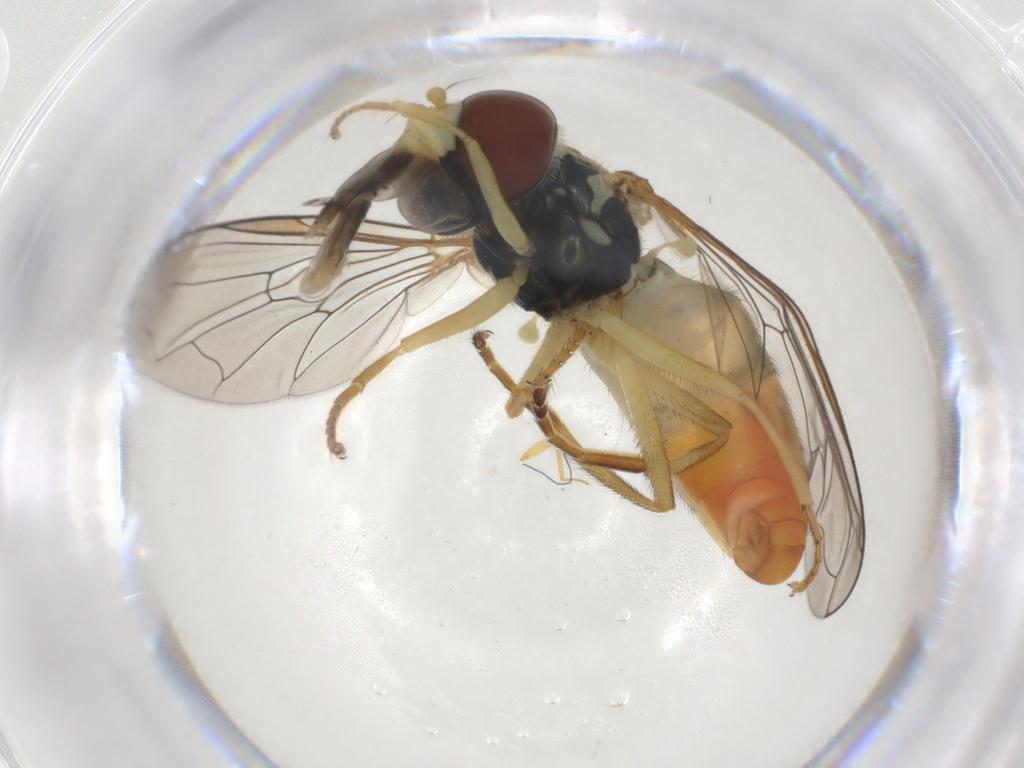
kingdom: Animalia
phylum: Arthropoda
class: Insecta
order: Diptera
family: Syrphidae
